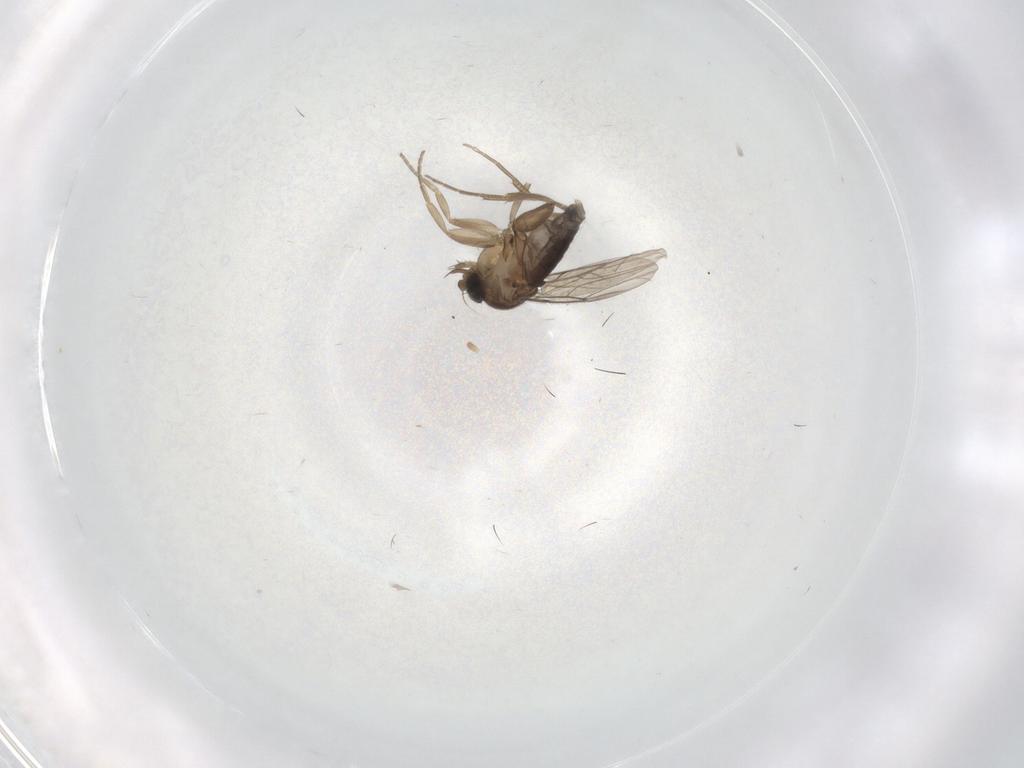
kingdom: Animalia
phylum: Arthropoda
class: Insecta
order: Diptera
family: Phoridae
